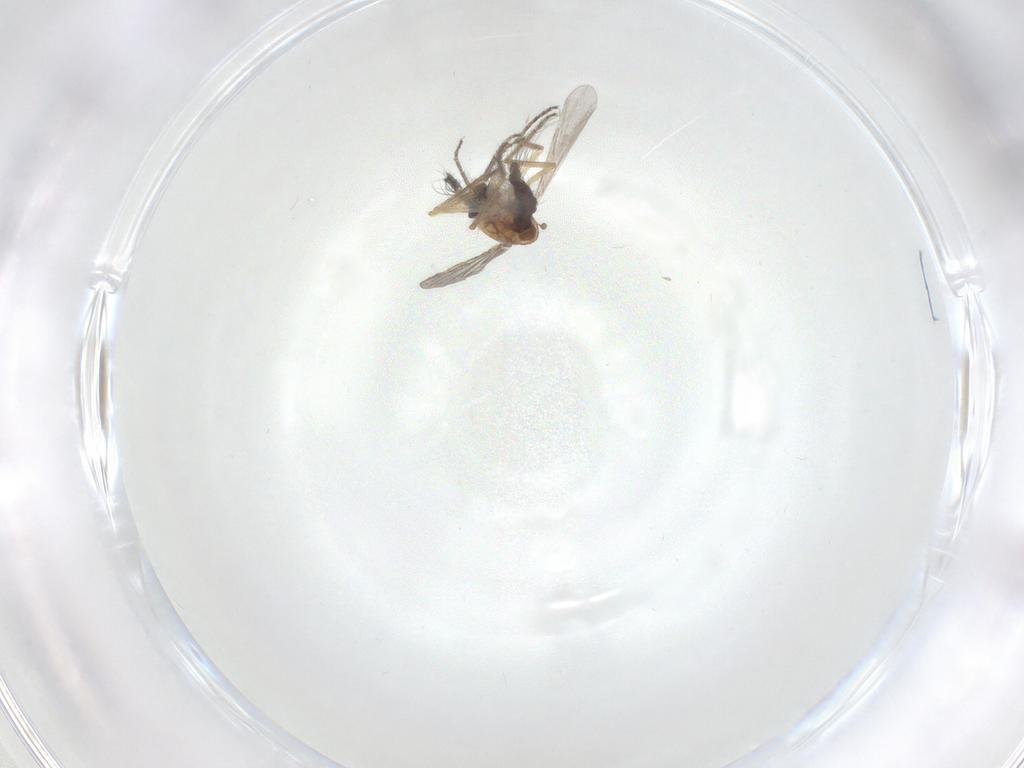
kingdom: Animalia
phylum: Arthropoda
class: Insecta
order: Diptera
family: Ceratopogonidae
